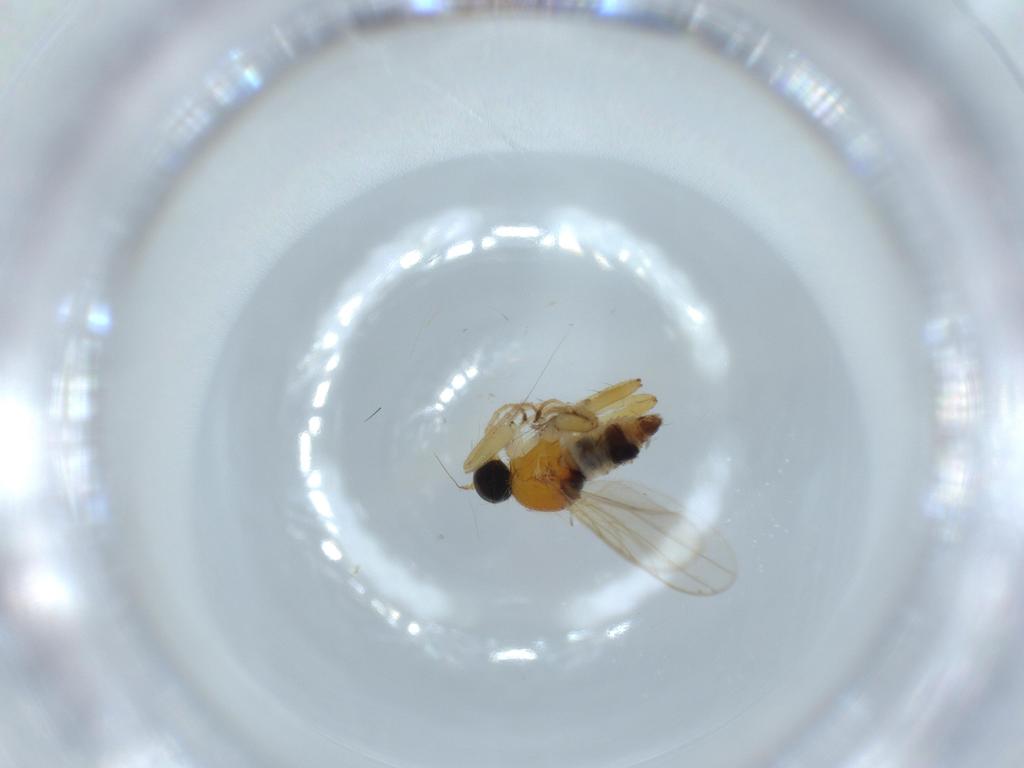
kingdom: Animalia
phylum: Arthropoda
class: Insecta
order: Diptera
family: Hybotidae
